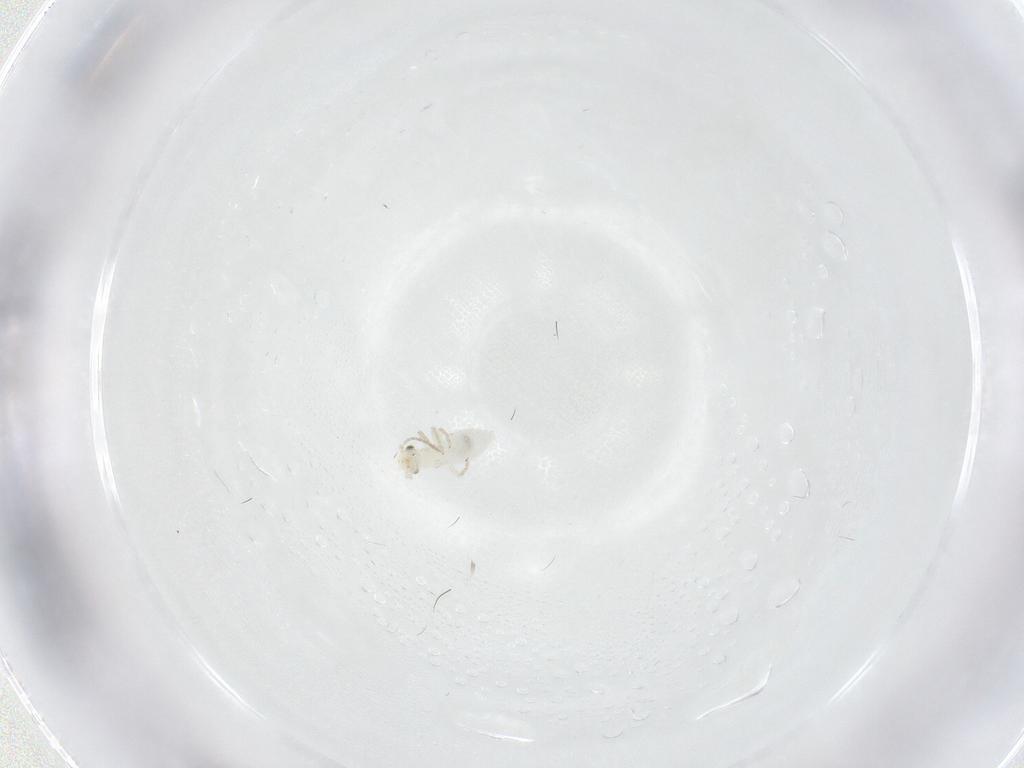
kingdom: Animalia
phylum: Arthropoda
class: Insecta
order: Psocodea
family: Caeciliusidae
